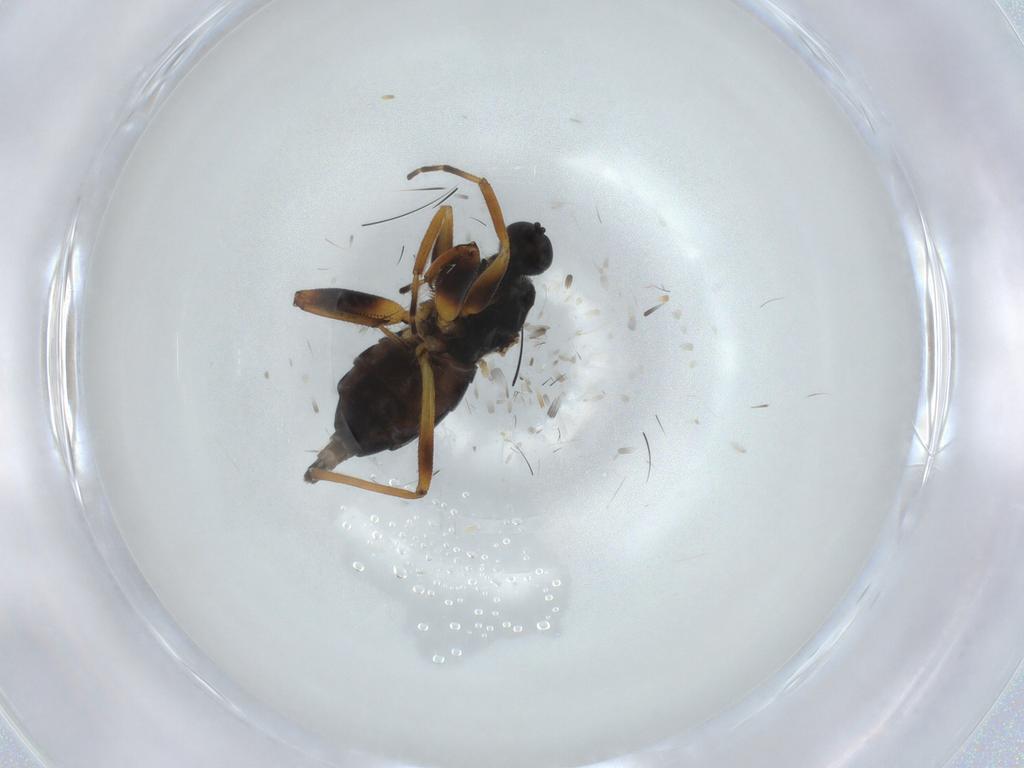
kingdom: Animalia
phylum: Arthropoda
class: Insecta
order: Diptera
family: Hybotidae
